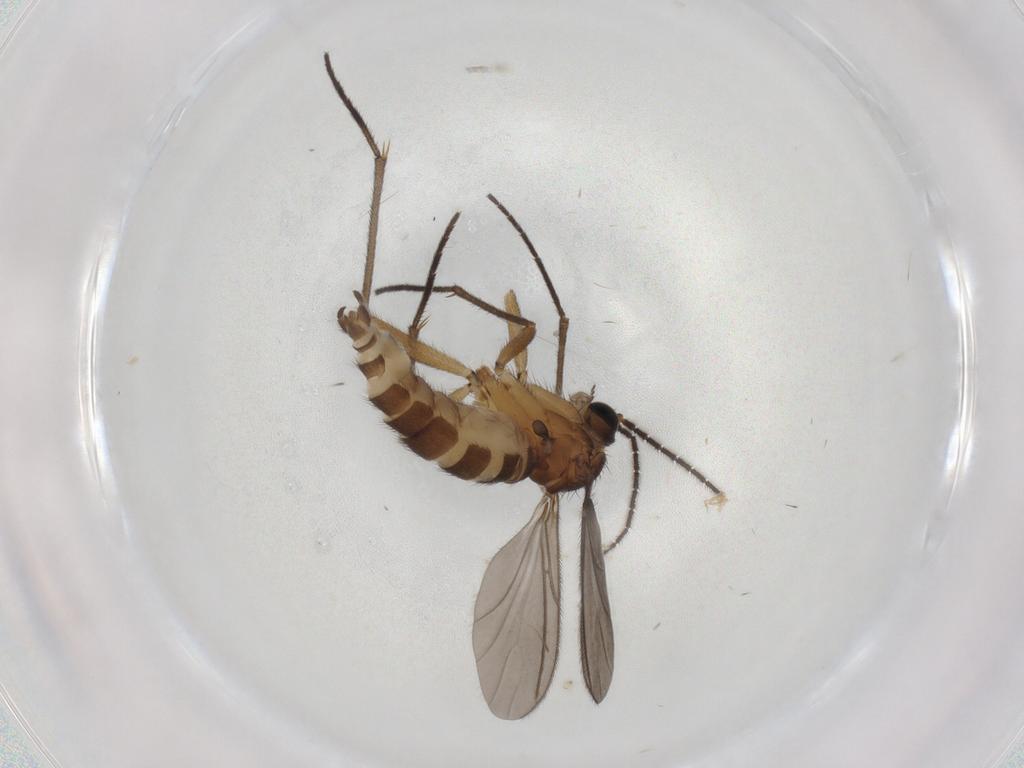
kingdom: Animalia
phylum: Arthropoda
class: Insecta
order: Diptera
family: Sciaridae
